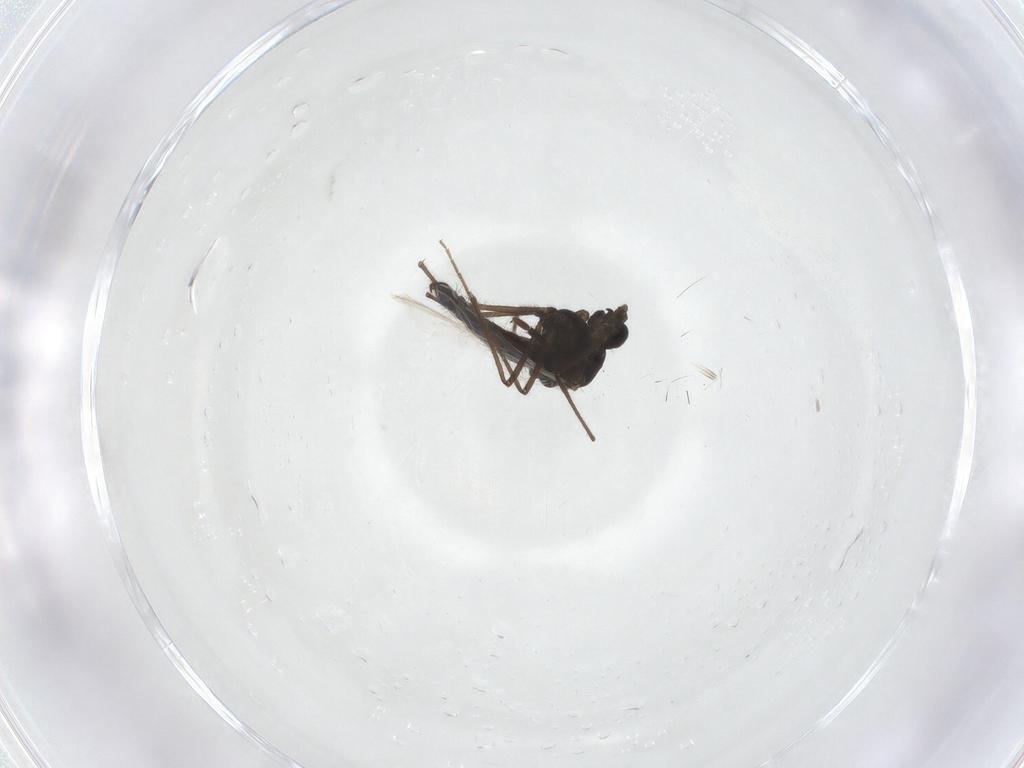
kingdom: Animalia
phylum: Arthropoda
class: Insecta
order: Diptera
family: Chironomidae
